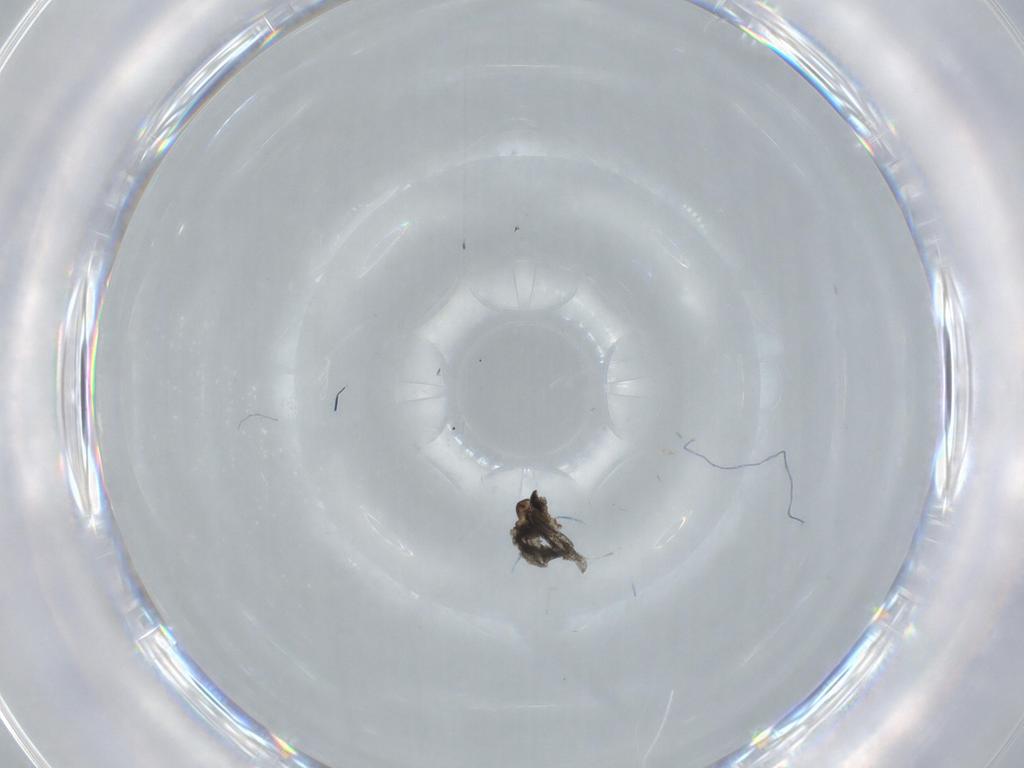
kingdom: Animalia
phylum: Arthropoda
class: Insecta
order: Diptera
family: Cecidomyiidae
